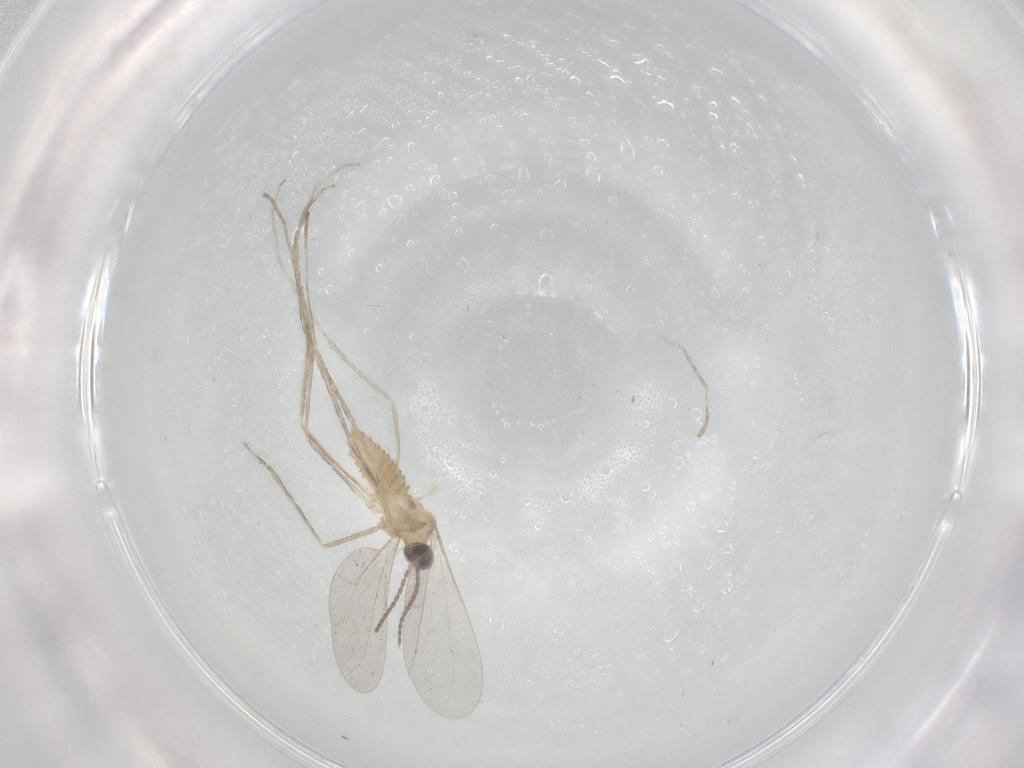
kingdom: Animalia
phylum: Arthropoda
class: Insecta
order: Diptera
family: Cecidomyiidae
